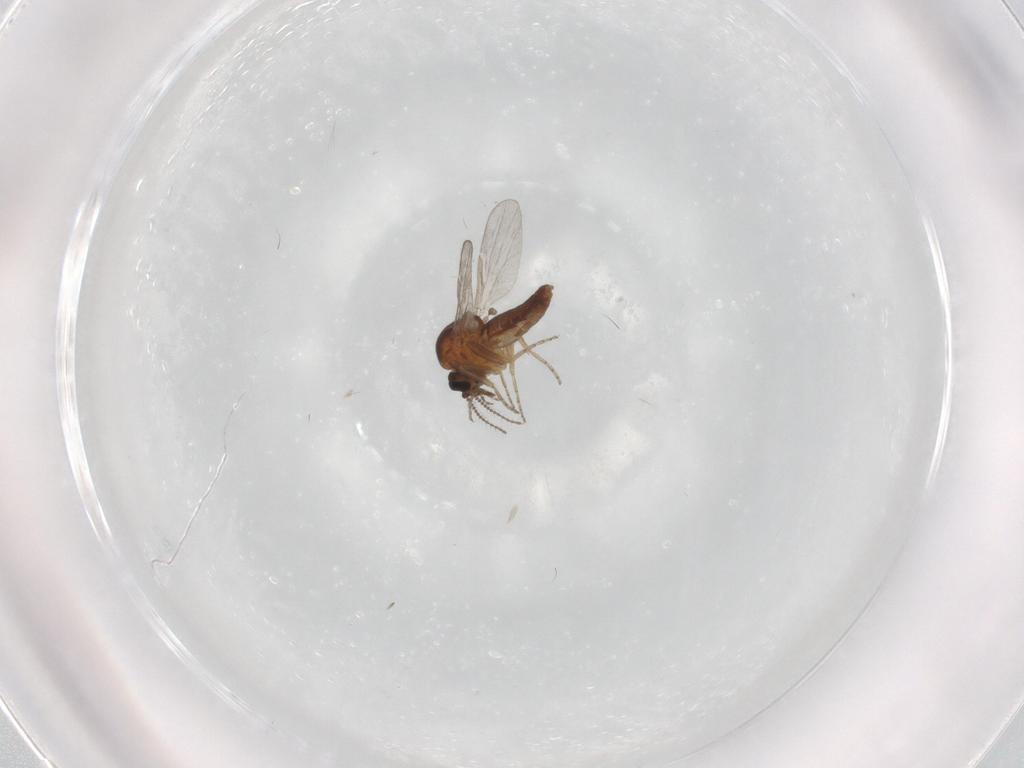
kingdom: Animalia
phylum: Arthropoda
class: Insecta
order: Diptera
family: Ceratopogonidae
